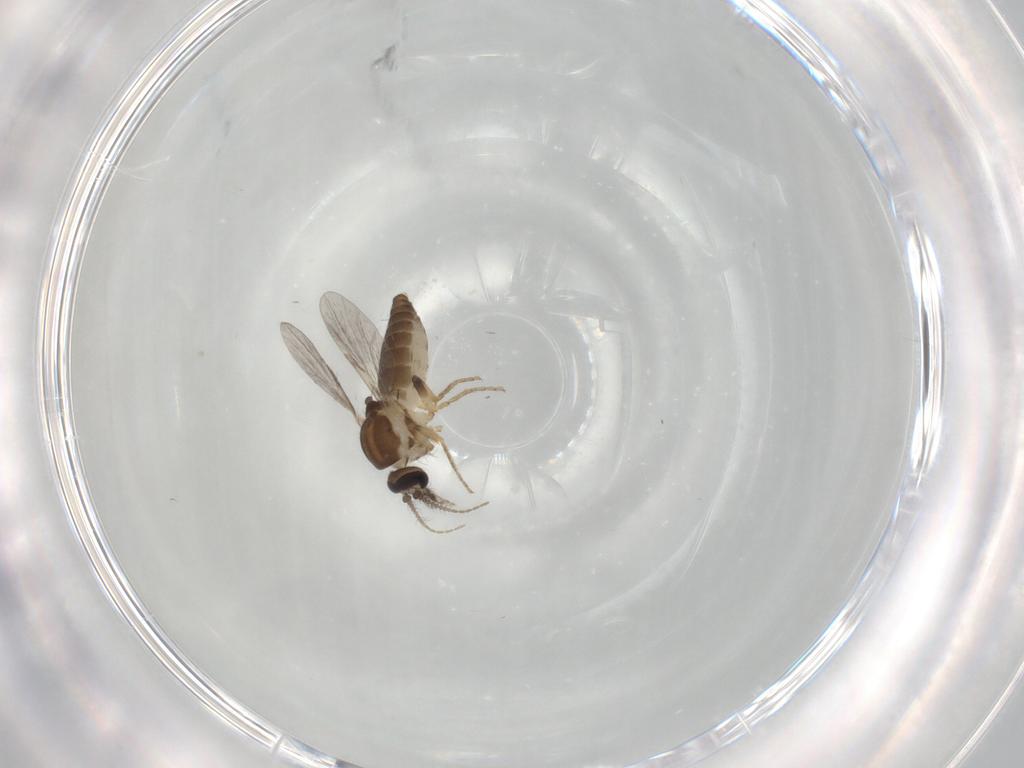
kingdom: Animalia
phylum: Arthropoda
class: Insecta
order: Diptera
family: Ceratopogonidae
